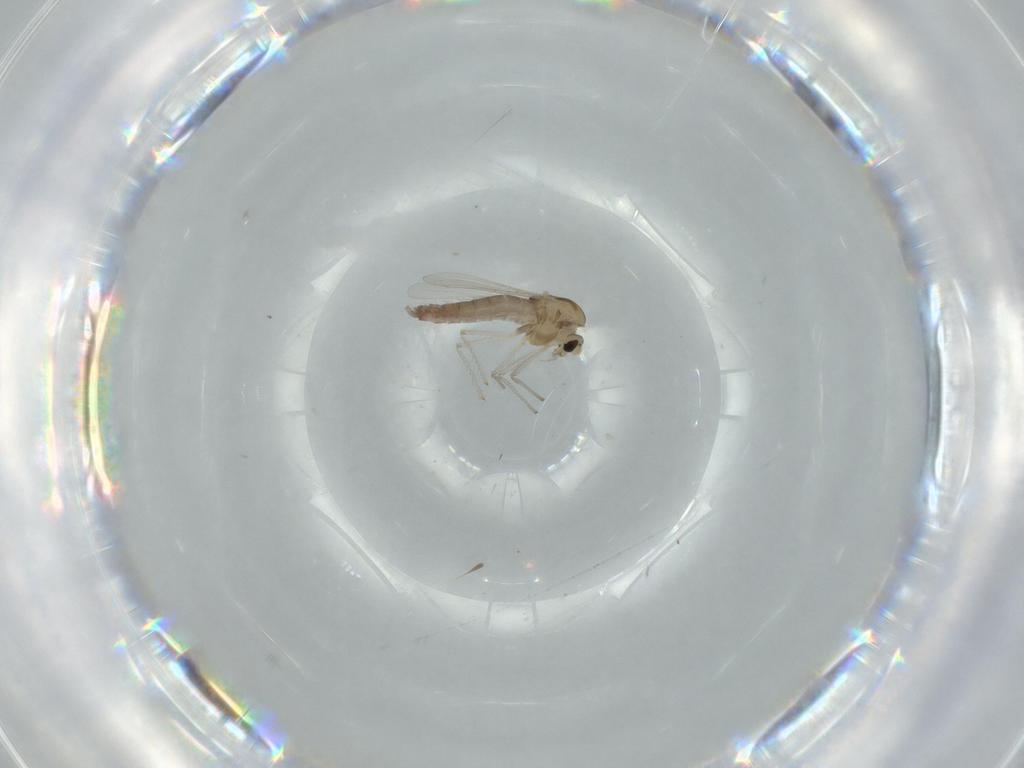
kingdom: Animalia
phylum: Arthropoda
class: Insecta
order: Diptera
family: Chironomidae
